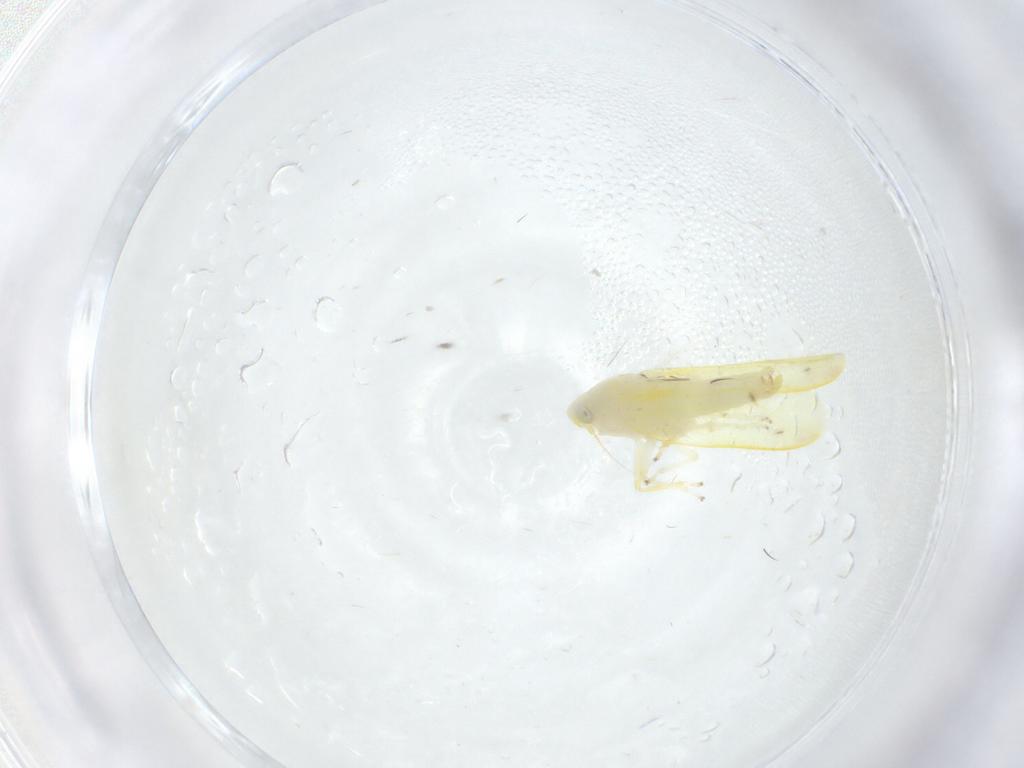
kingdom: Animalia
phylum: Arthropoda
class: Insecta
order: Hemiptera
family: Cicadellidae
